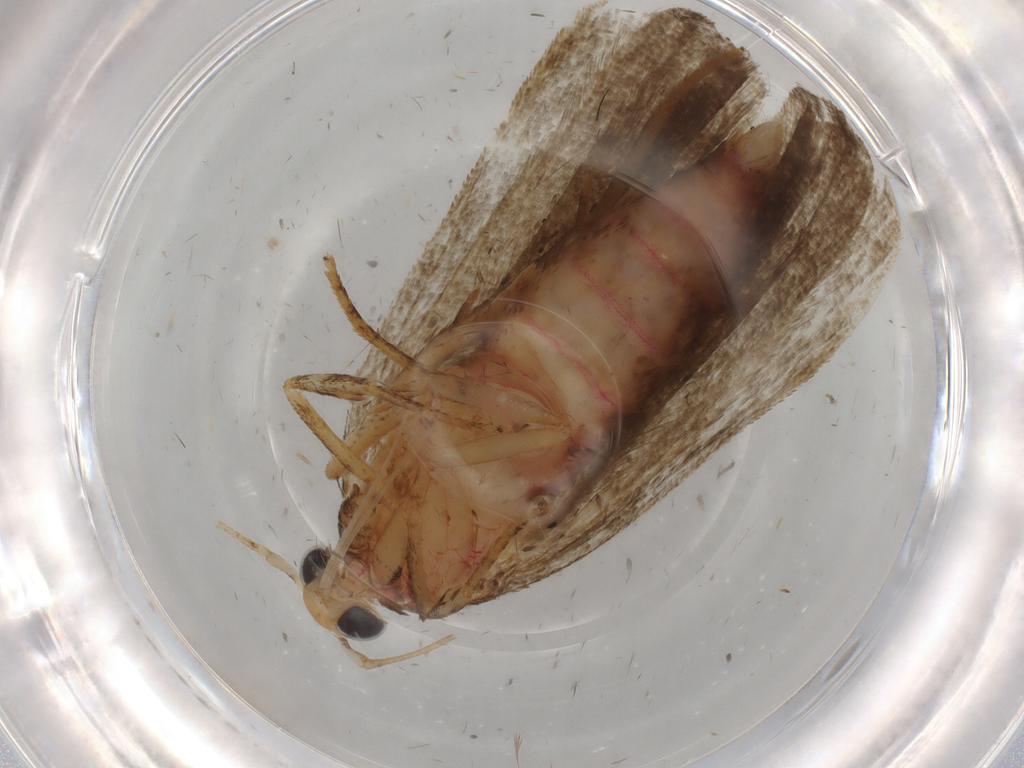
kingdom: Animalia
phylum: Arthropoda
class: Insecta
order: Lepidoptera
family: Autostichidae
